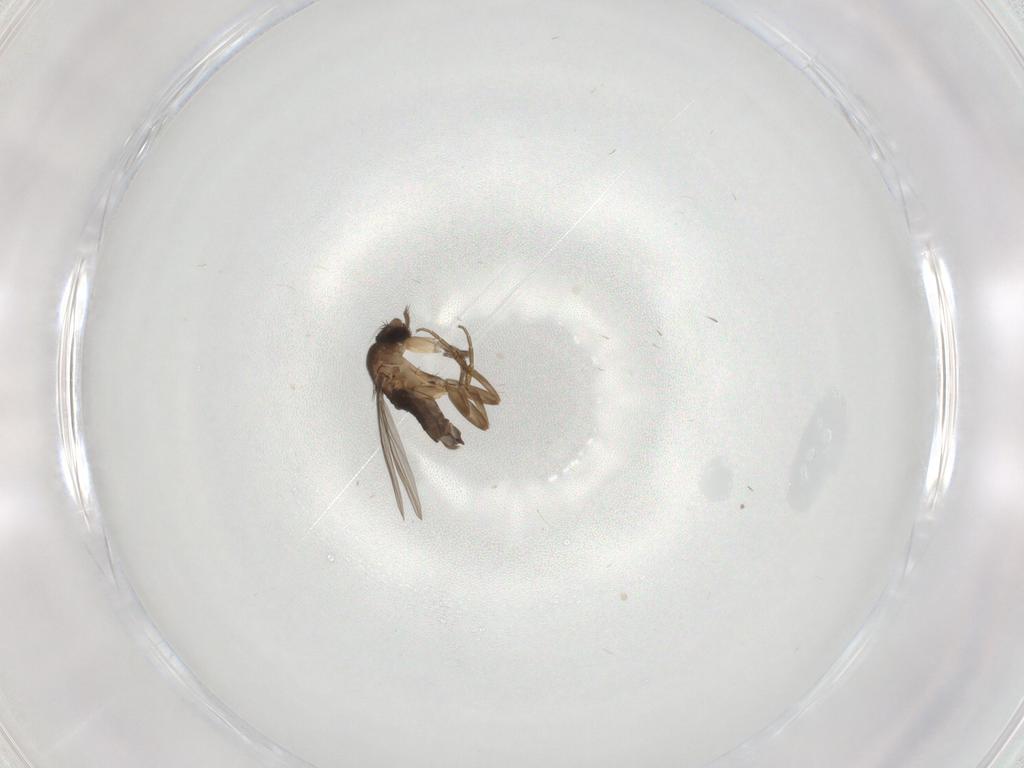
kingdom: Animalia
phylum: Arthropoda
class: Insecta
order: Diptera
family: Phoridae
